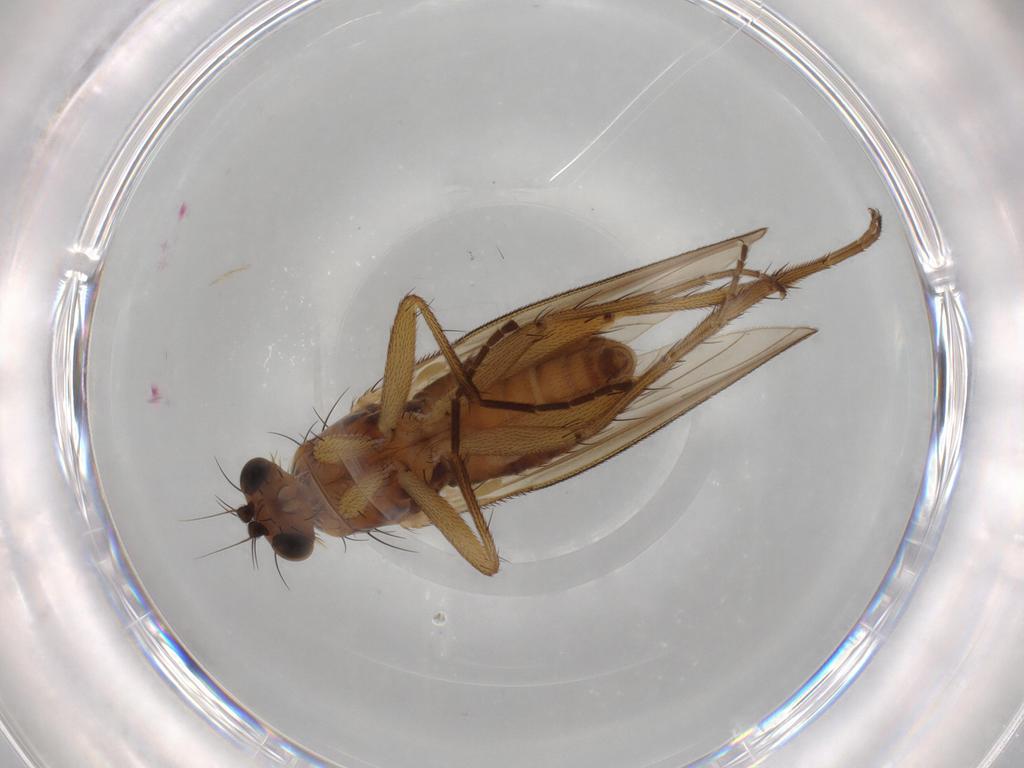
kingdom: Animalia
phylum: Arthropoda
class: Insecta
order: Diptera
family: Lonchopteridae
